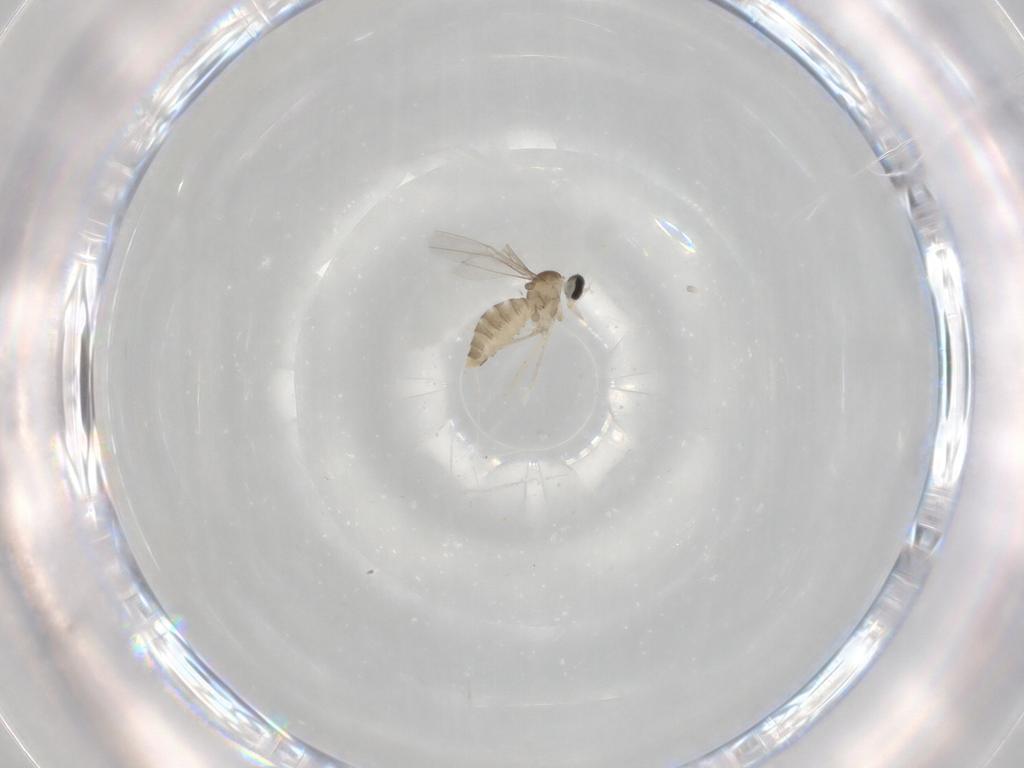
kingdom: Animalia
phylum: Arthropoda
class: Insecta
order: Diptera
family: Cecidomyiidae
